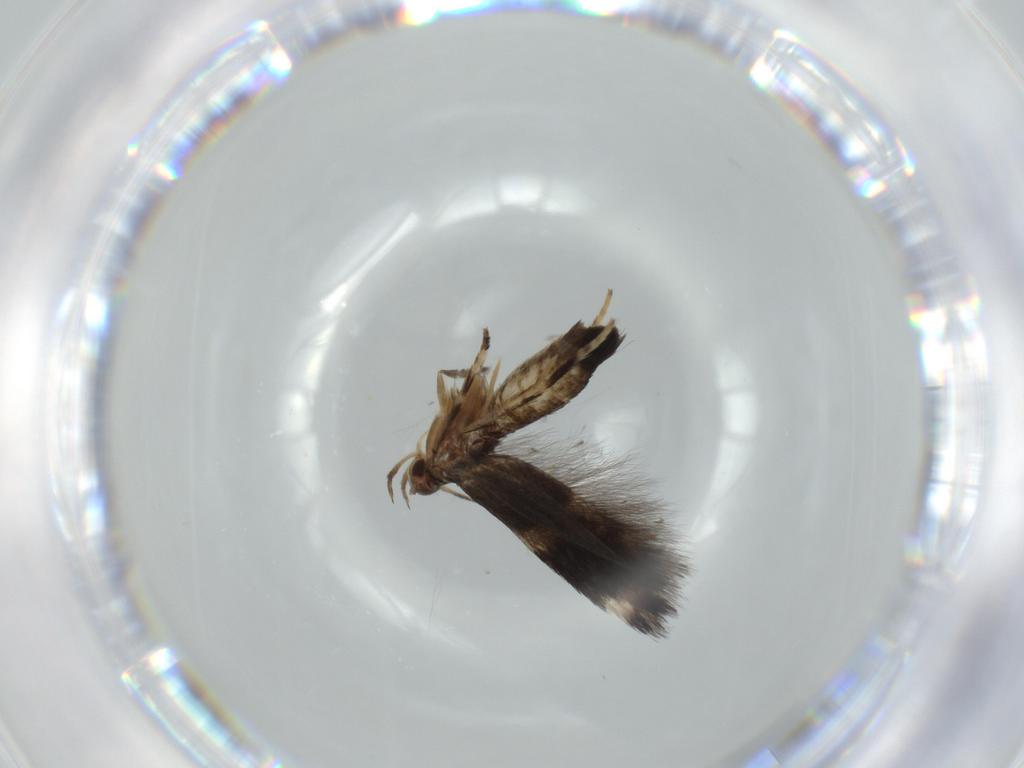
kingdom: Animalia
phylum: Arthropoda
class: Insecta
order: Lepidoptera
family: Cosmopterigidae
